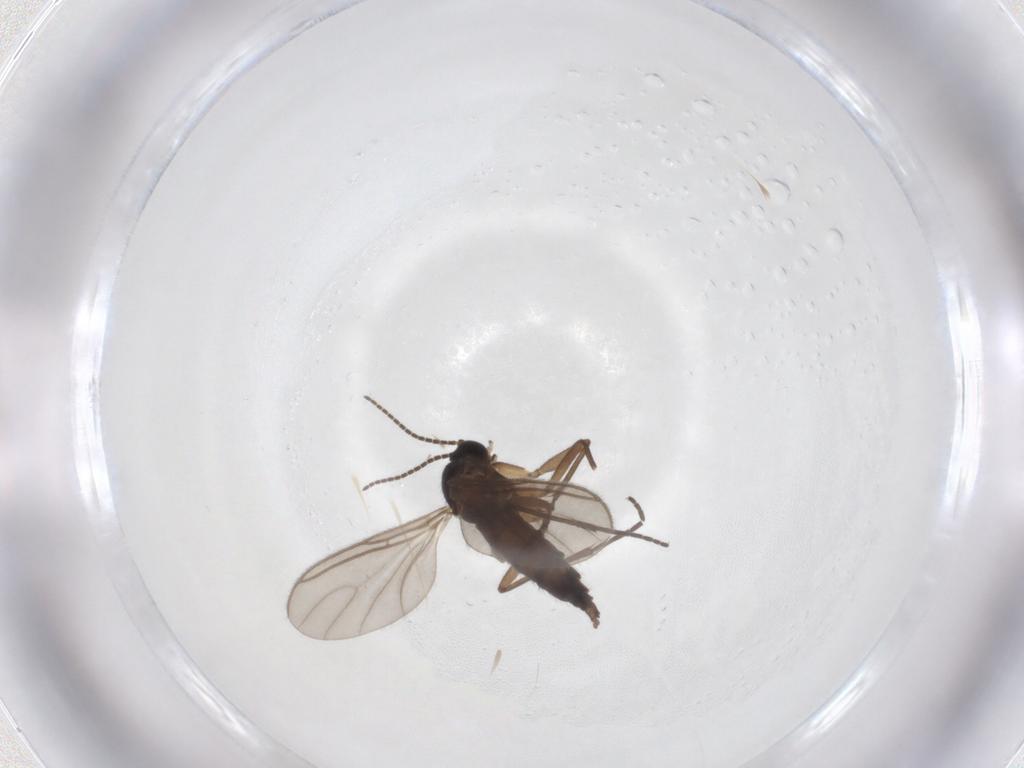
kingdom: Animalia
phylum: Arthropoda
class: Insecta
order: Diptera
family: Sciaridae
